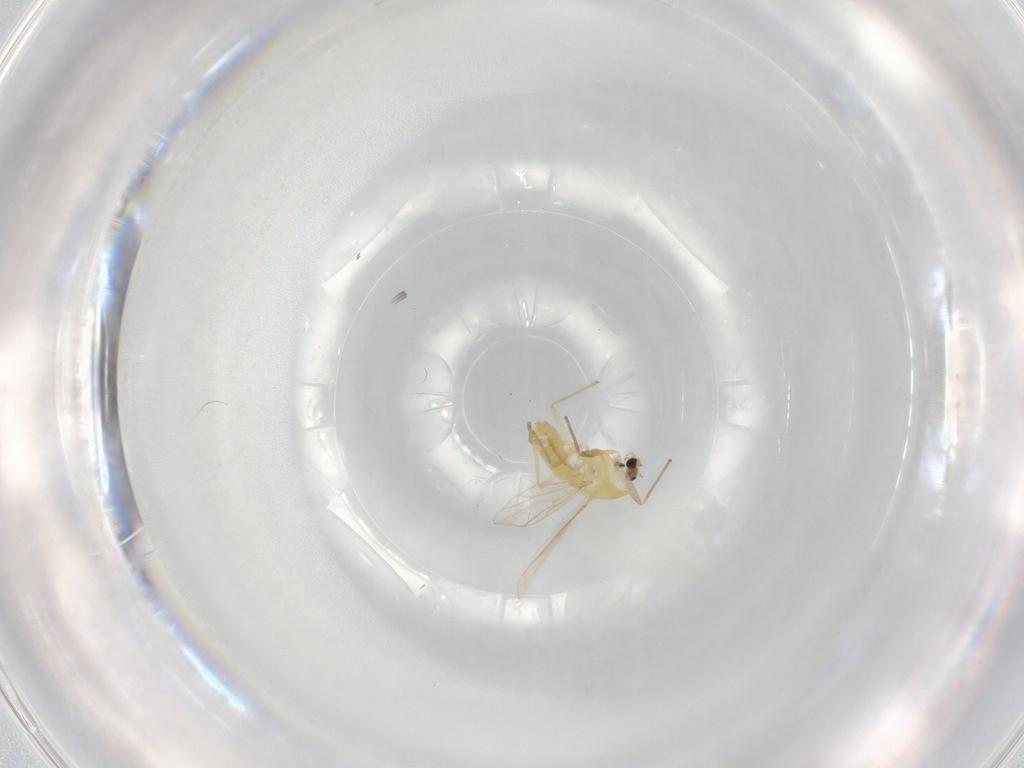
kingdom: Animalia
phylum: Arthropoda
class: Insecta
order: Diptera
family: Chironomidae
